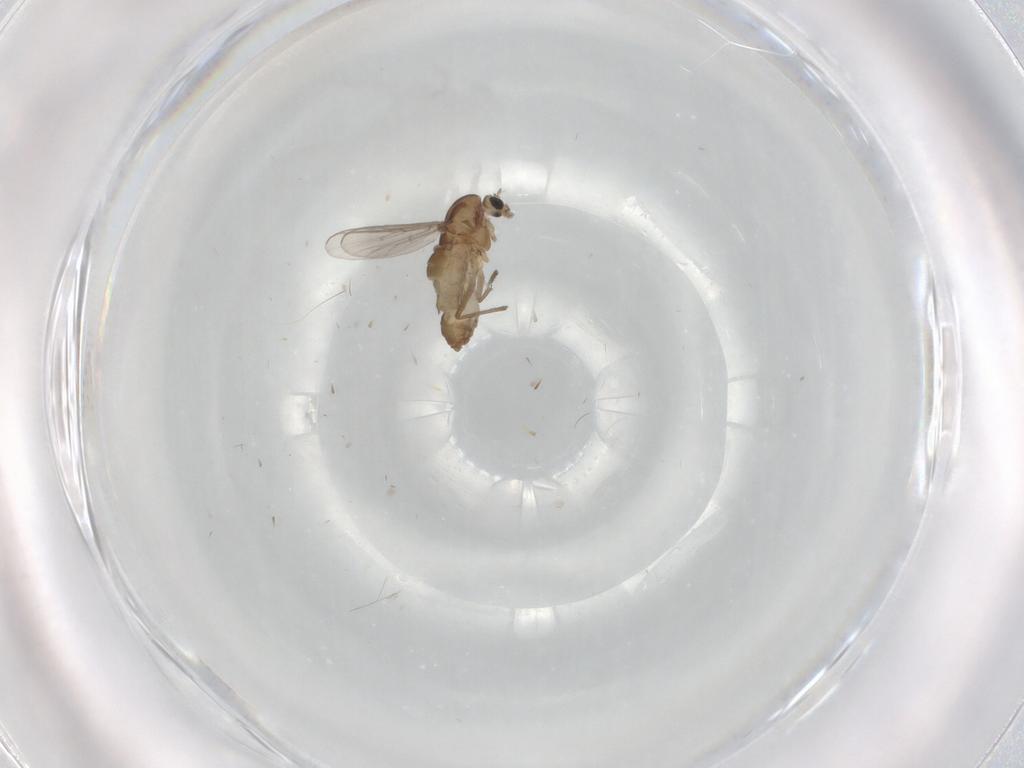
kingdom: Animalia
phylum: Arthropoda
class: Insecta
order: Diptera
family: Chironomidae
